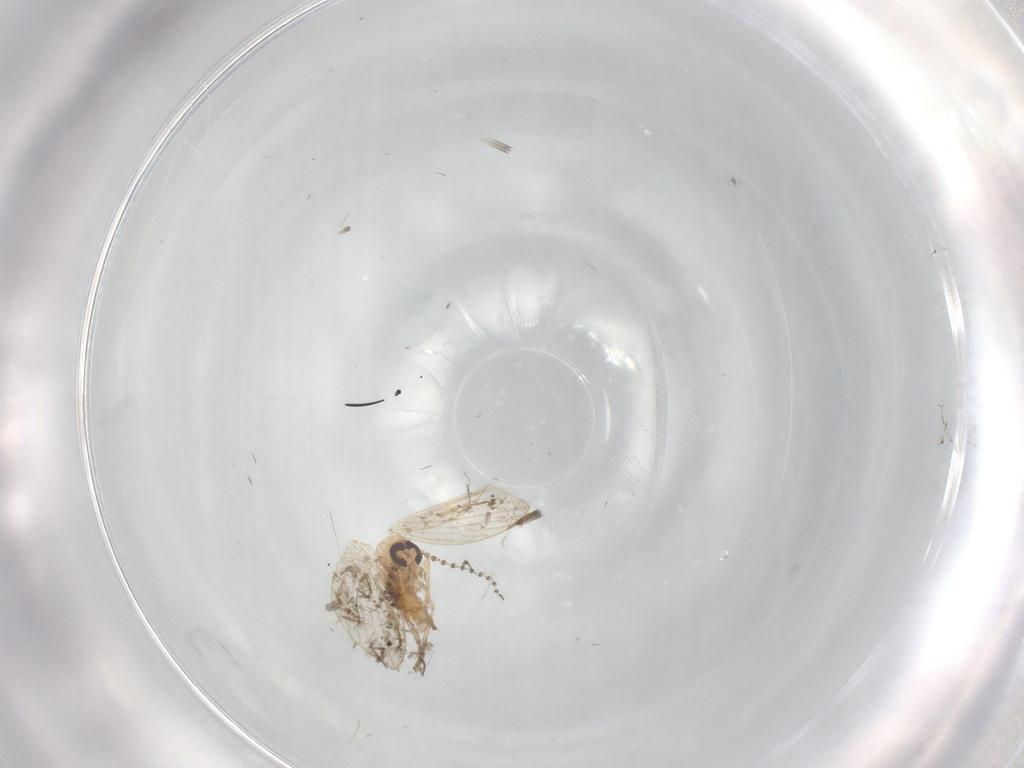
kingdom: Animalia
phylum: Arthropoda
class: Insecta
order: Diptera
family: Psychodidae
